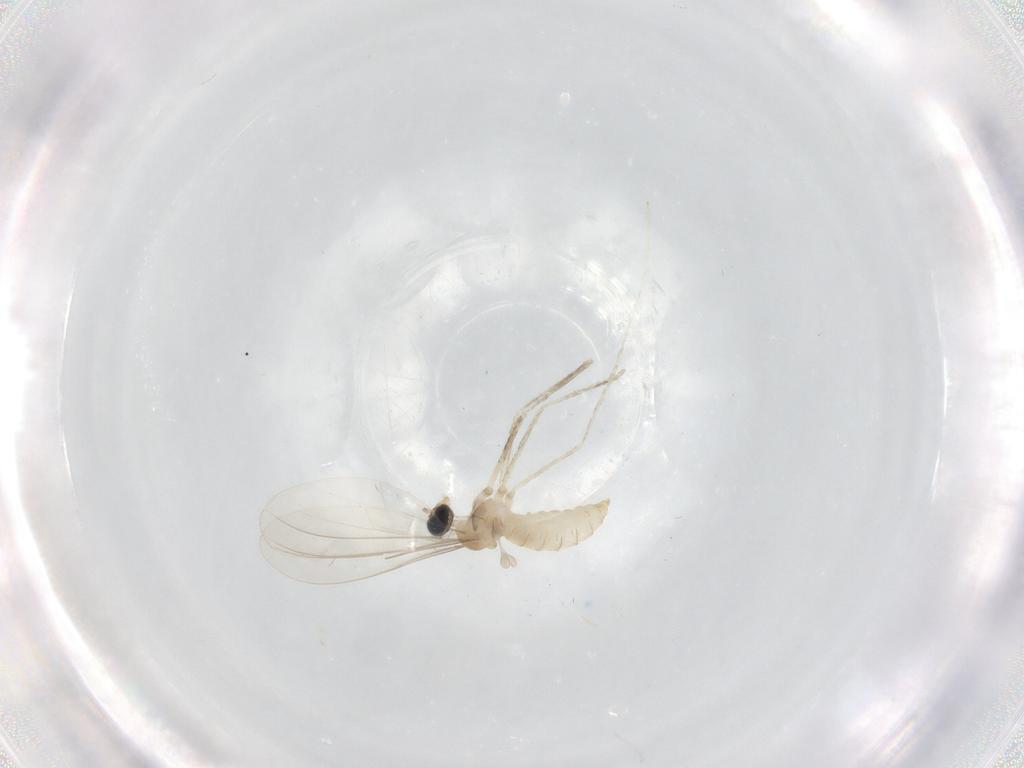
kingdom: Animalia
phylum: Arthropoda
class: Insecta
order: Diptera
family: Cecidomyiidae
